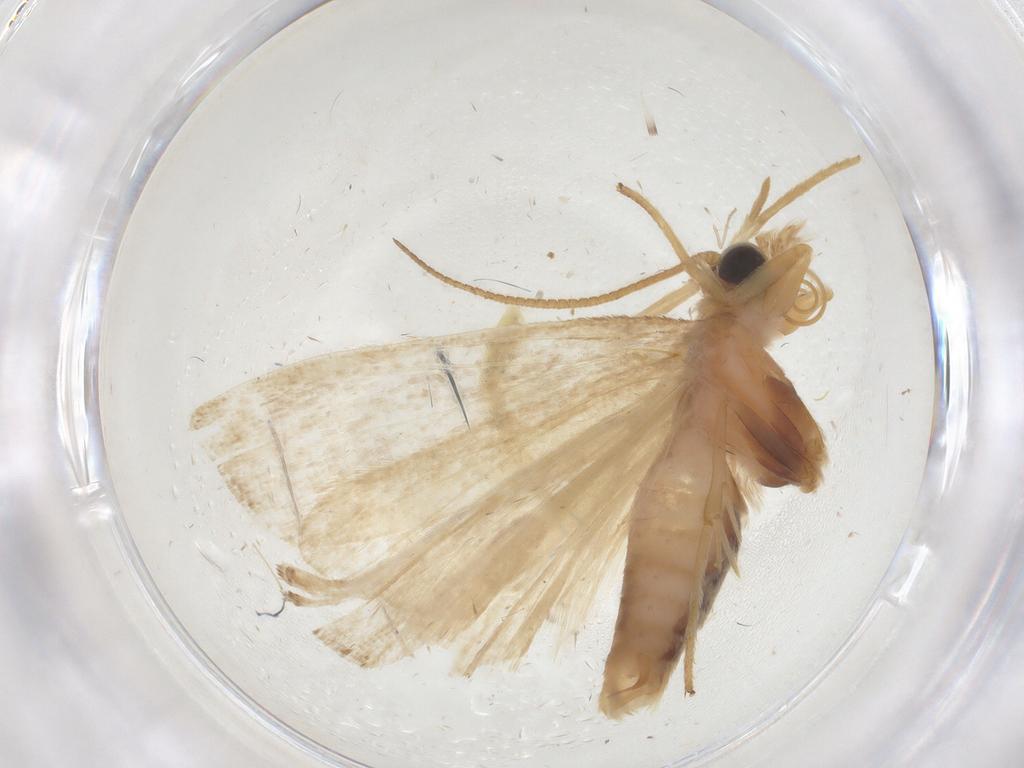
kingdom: Animalia
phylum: Arthropoda
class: Insecta
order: Lepidoptera
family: Erebidae
